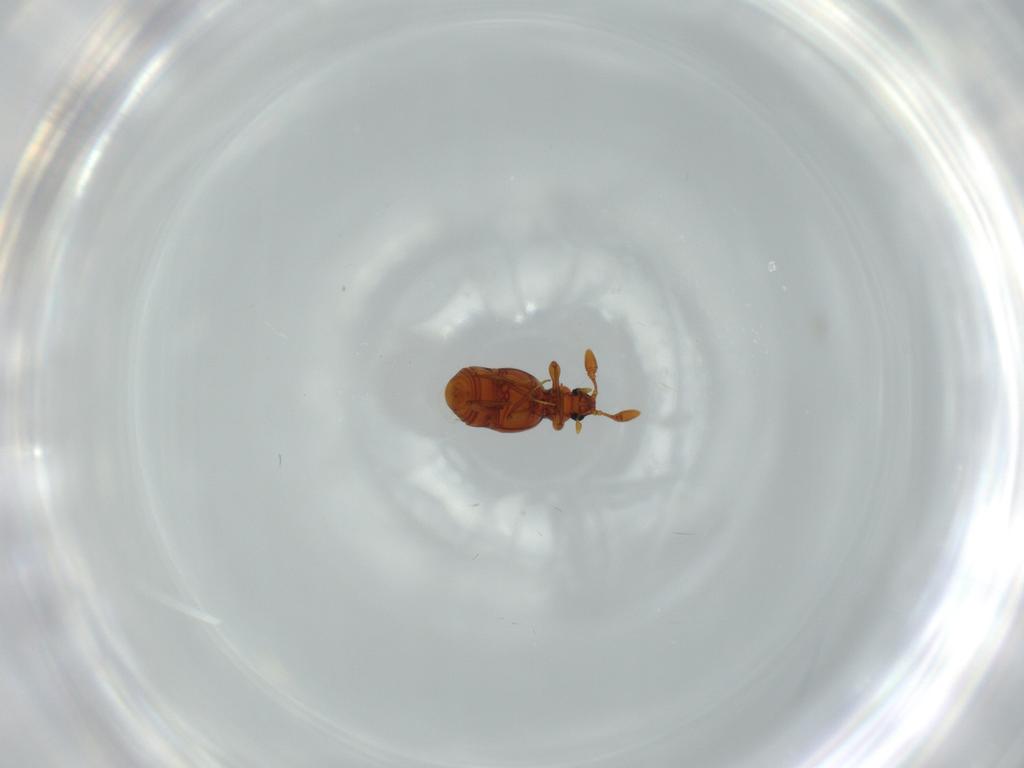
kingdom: Animalia
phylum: Arthropoda
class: Insecta
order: Coleoptera
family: Staphylinidae
